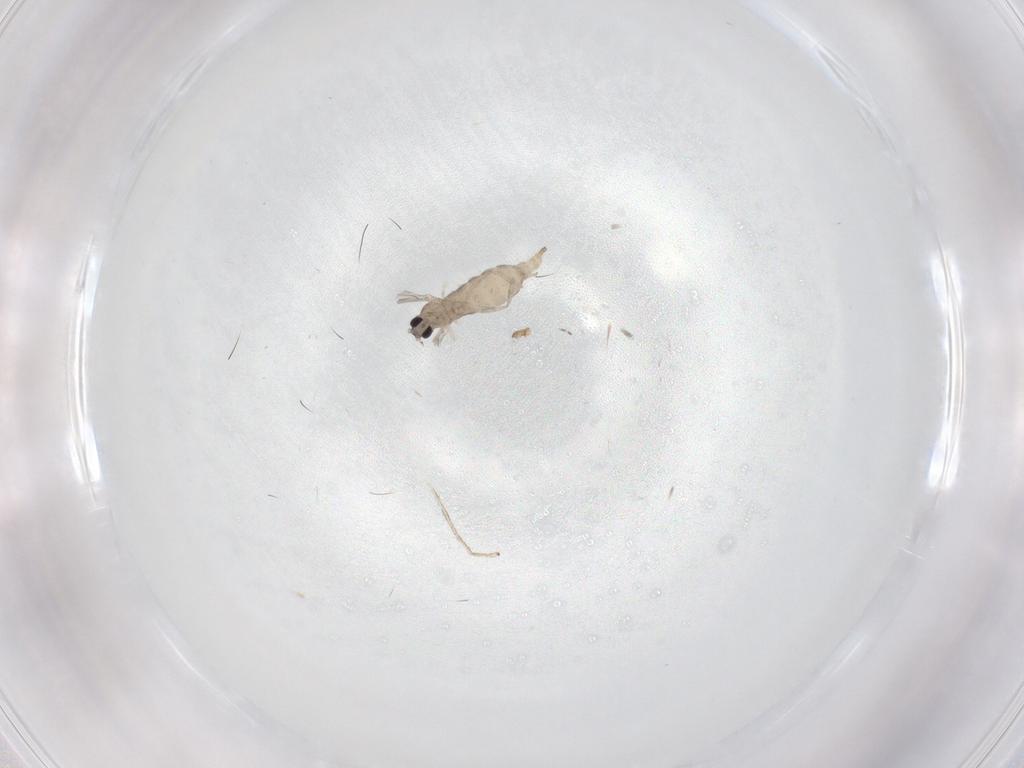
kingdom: Animalia
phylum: Arthropoda
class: Insecta
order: Diptera
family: Cecidomyiidae
